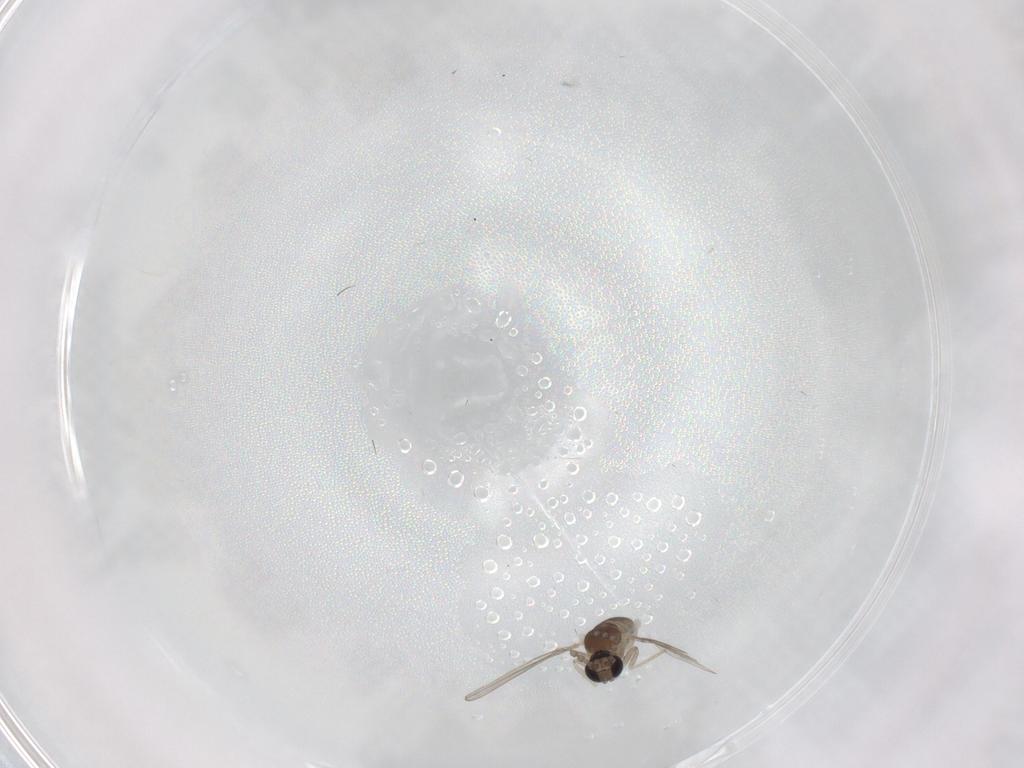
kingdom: Animalia
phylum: Arthropoda
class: Insecta
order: Diptera
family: Cecidomyiidae
